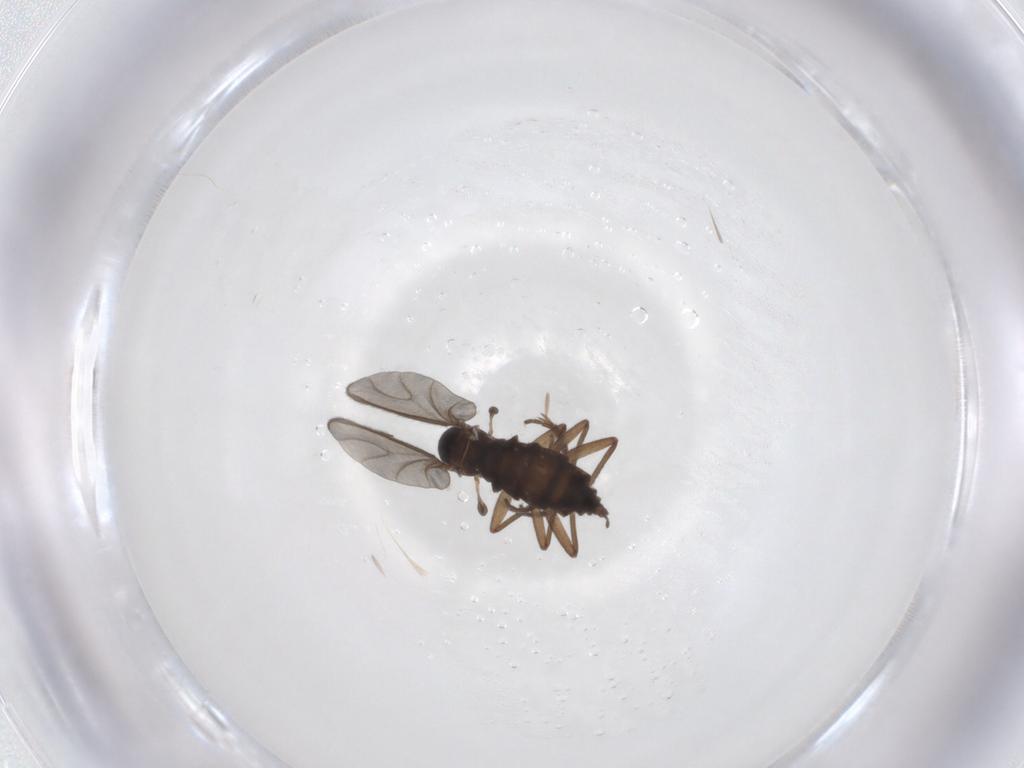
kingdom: Animalia
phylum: Arthropoda
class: Insecta
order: Diptera
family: Sciaridae
